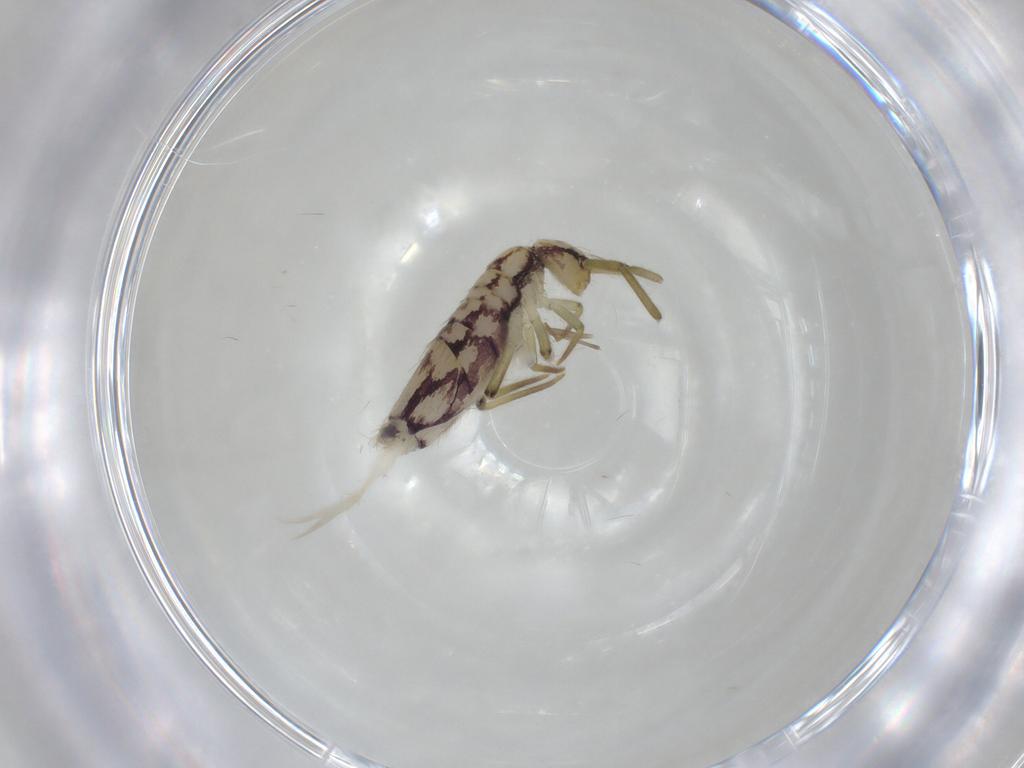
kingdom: Animalia
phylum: Arthropoda
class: Collembola
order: Entomobryomorpha
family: Entomobryidae
